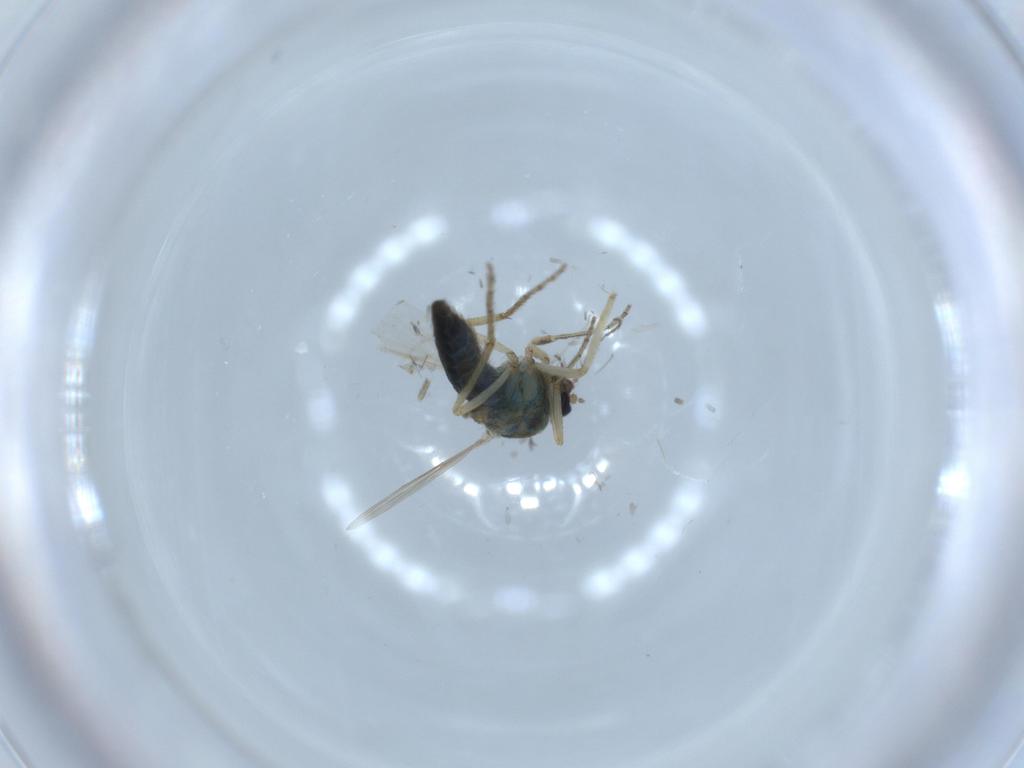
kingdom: Animalia
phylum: Arthropoda
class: Insecta
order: Diptera
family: Ceratopogonidae
